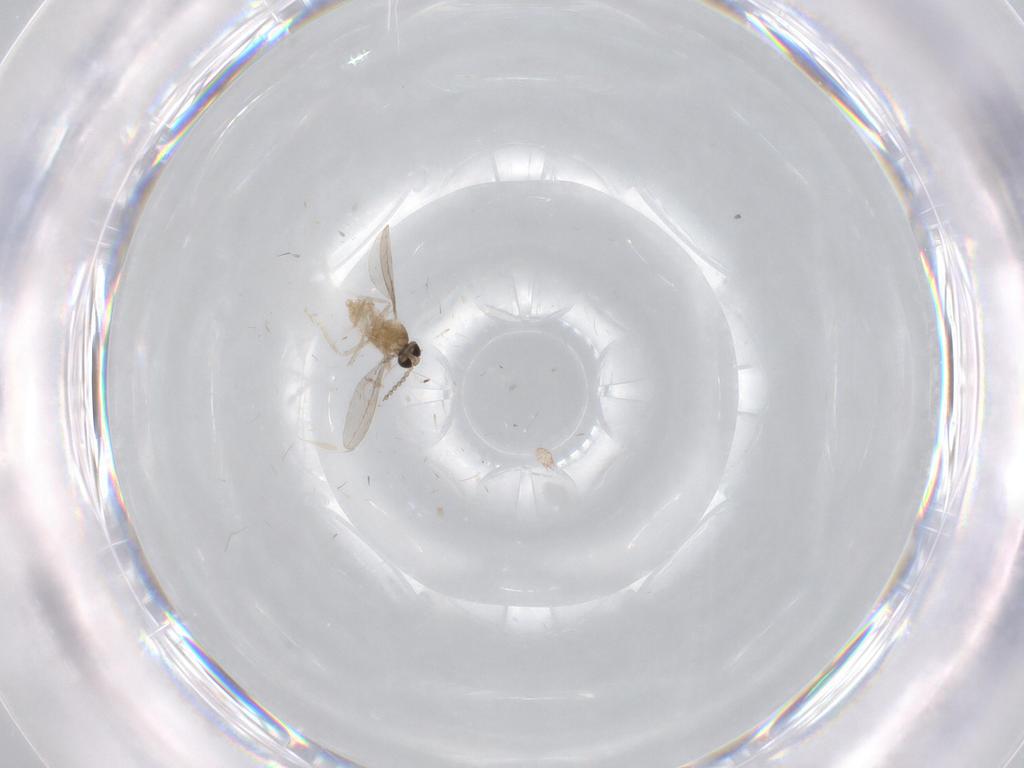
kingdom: Animalia
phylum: Arthropoda
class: Insecta
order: Diptera
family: Cecidomyiidae
